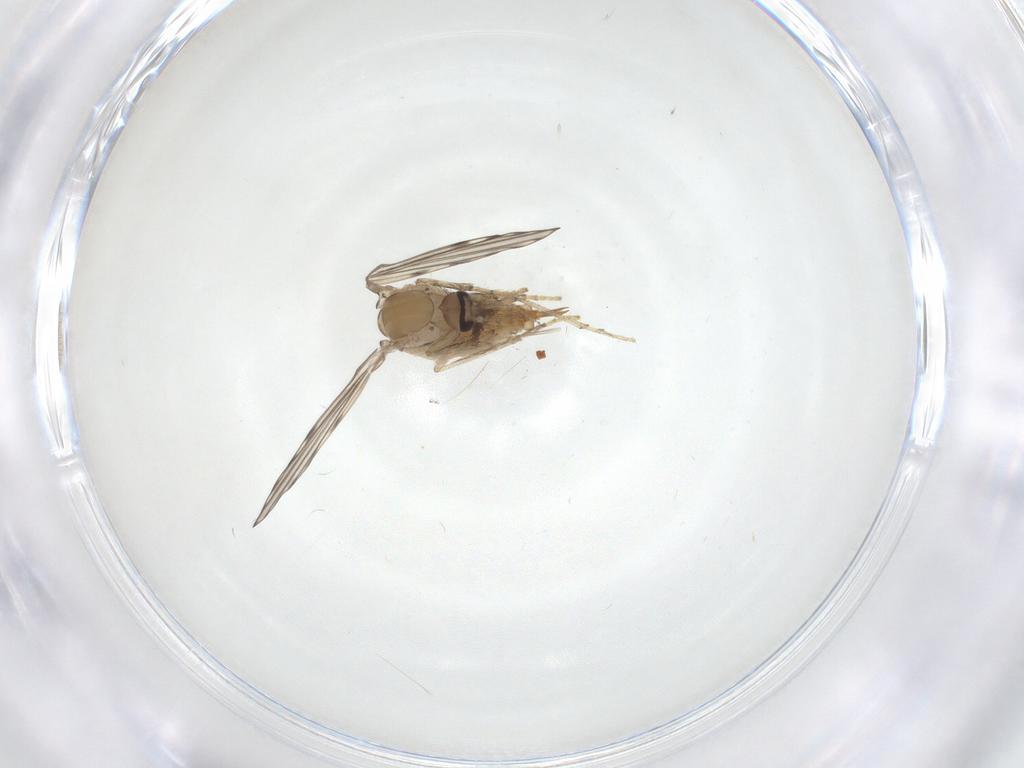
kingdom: Animalia
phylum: Arthropoda
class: Insecta
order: Diptera
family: Psychodidae
